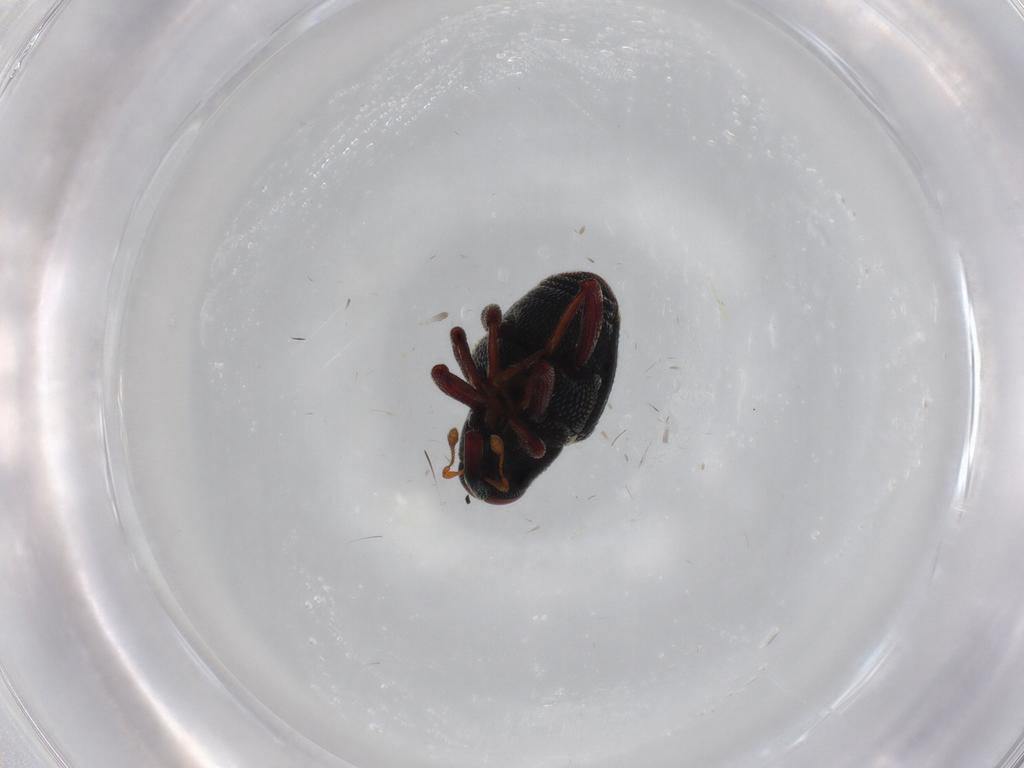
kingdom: Animalia
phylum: Arthropoda
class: Insecta
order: Coleoptera
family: Curculionidae
